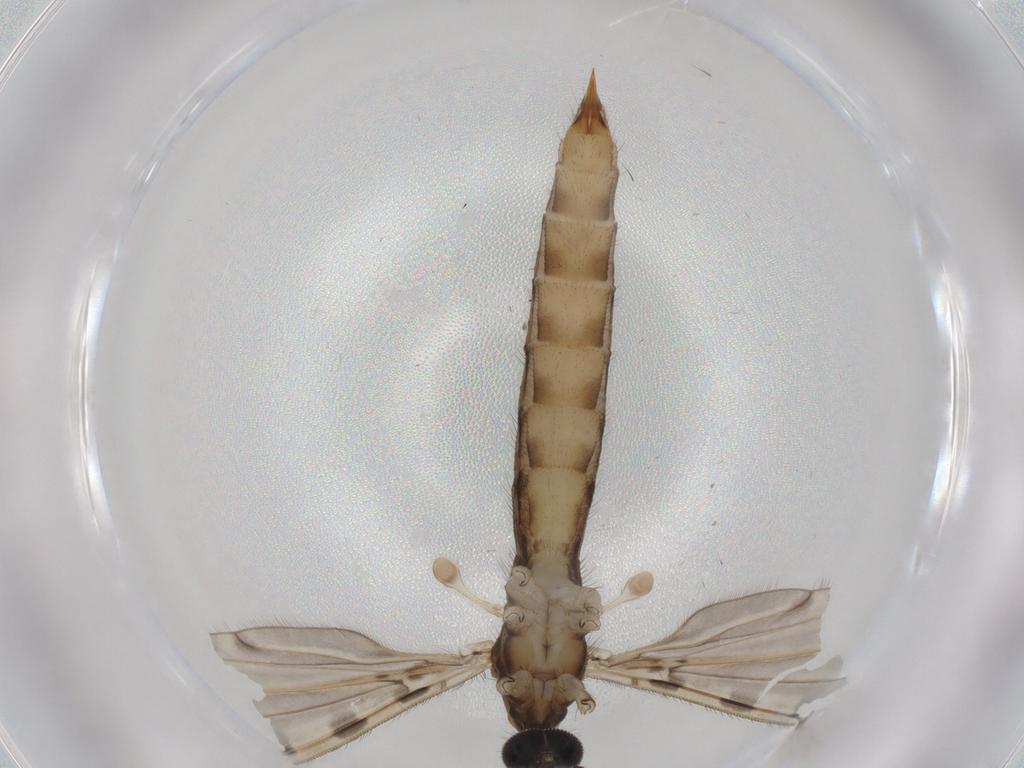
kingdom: Animalia
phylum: Arthropoda
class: Insecta
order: Diptera
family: Limoniidae
